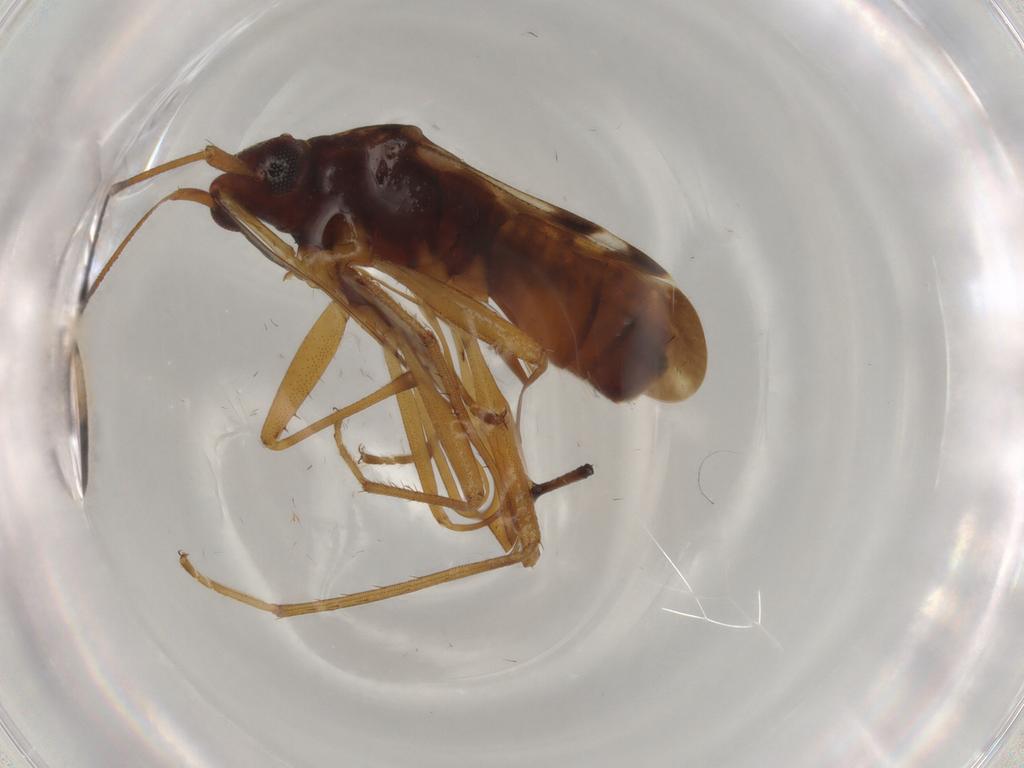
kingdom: Animalia
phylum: Arthropoda
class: Insecta
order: Hemiptera
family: Rhyparochromidae
